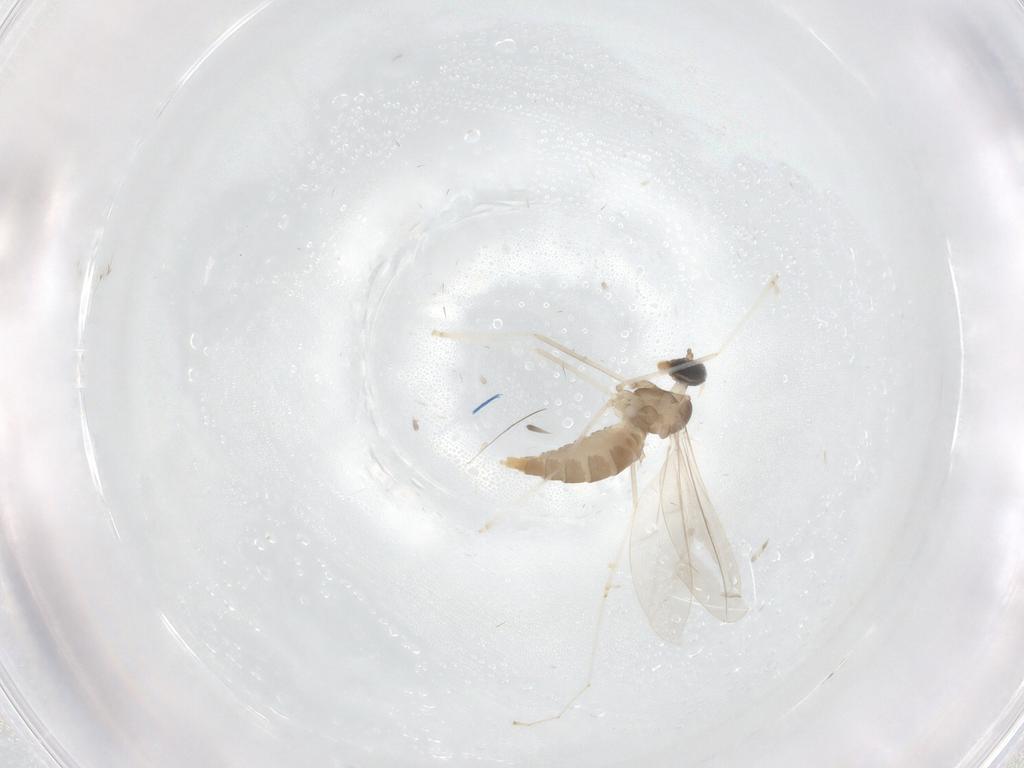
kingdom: Animalia
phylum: Arthropoda
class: Insecta
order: Diptera
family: Cecidomyiidae
